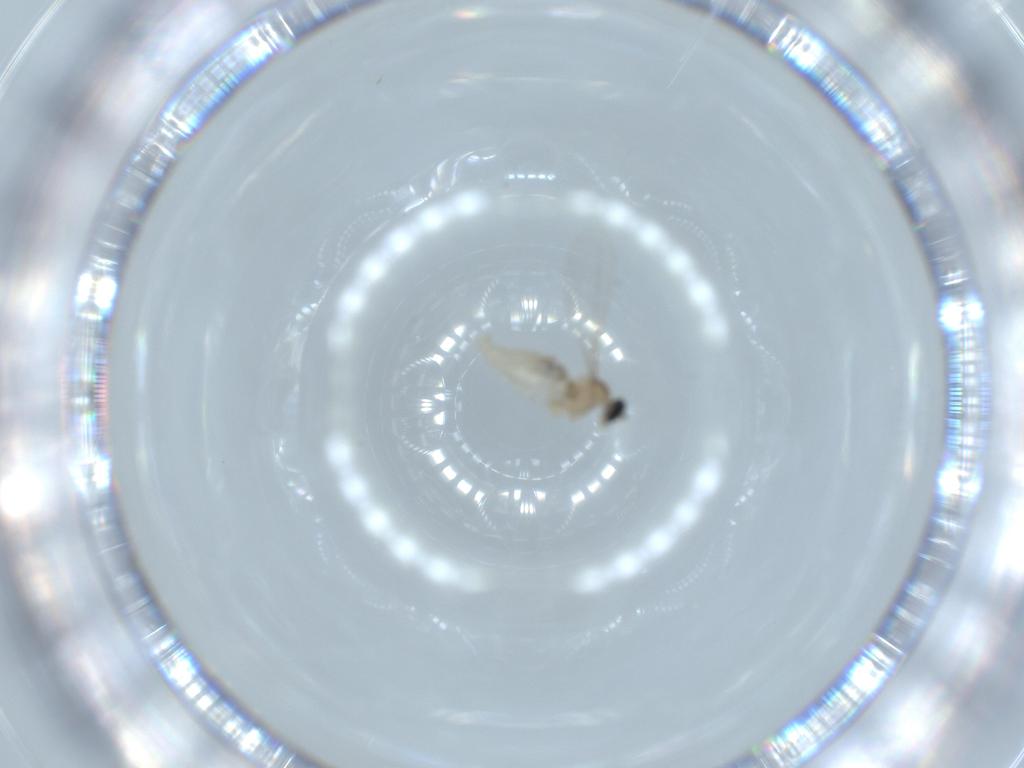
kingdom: Animalia
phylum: Arthropoda
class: Insecta
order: Diptera
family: Cecidomyiidae
